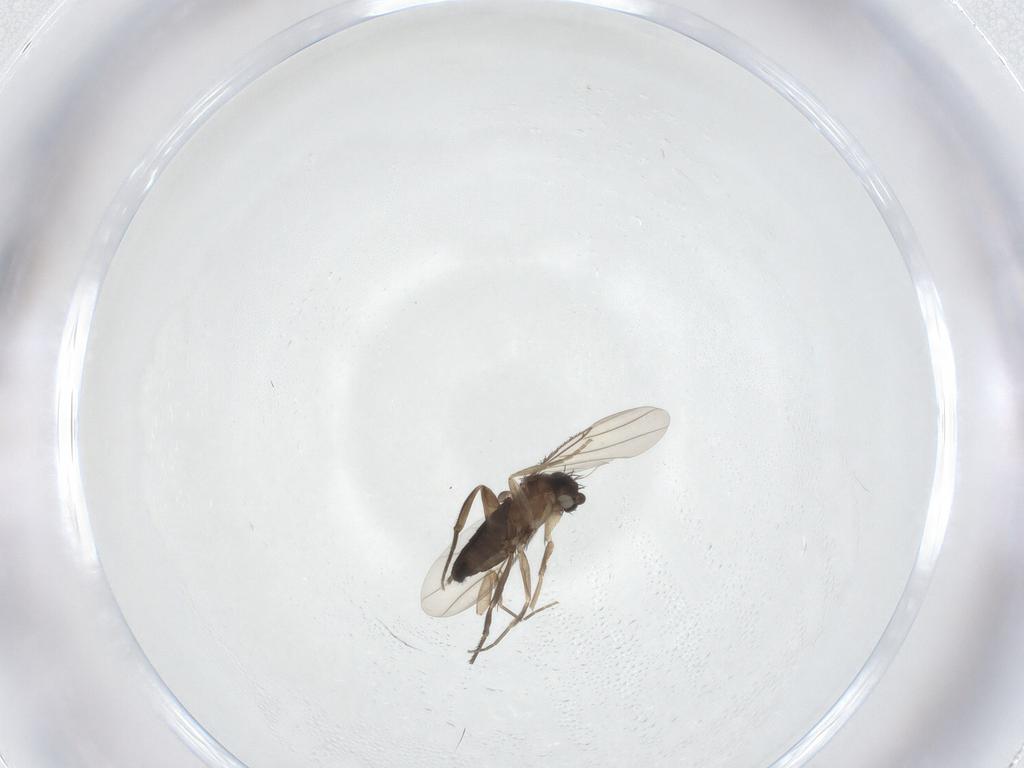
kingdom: Animalia
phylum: Arthropoda
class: Insecta
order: Diptera
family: Phoridae
